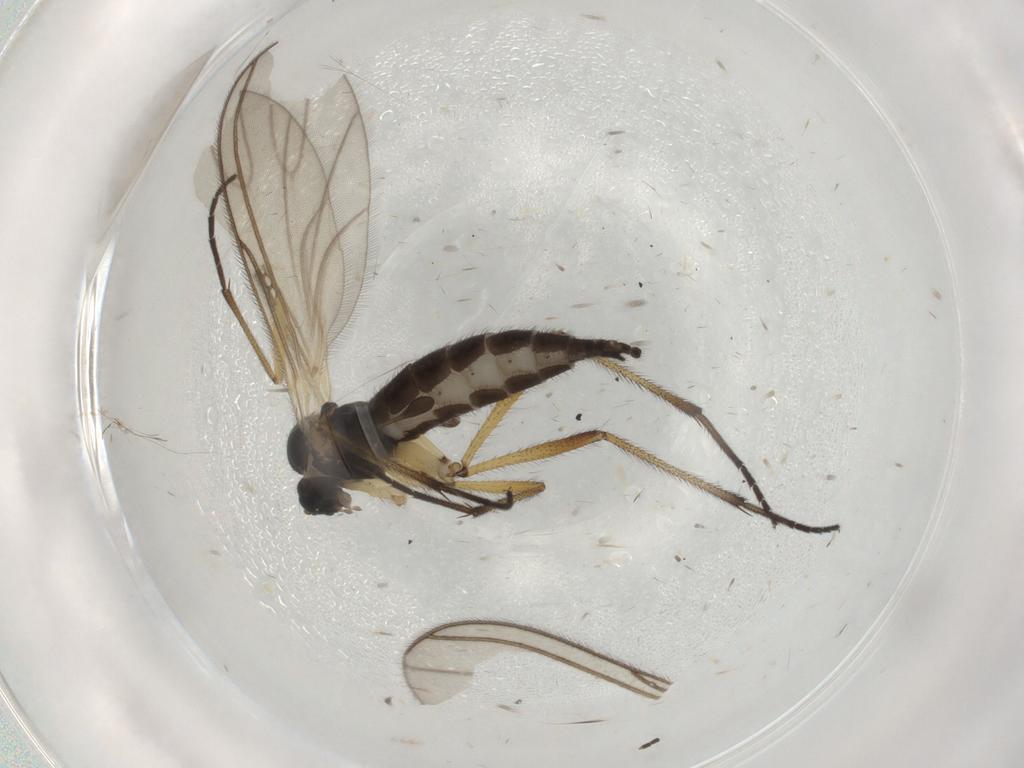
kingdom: Animalia
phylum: Arthropoda
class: Insecta
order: Diptera
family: Sciaridae
